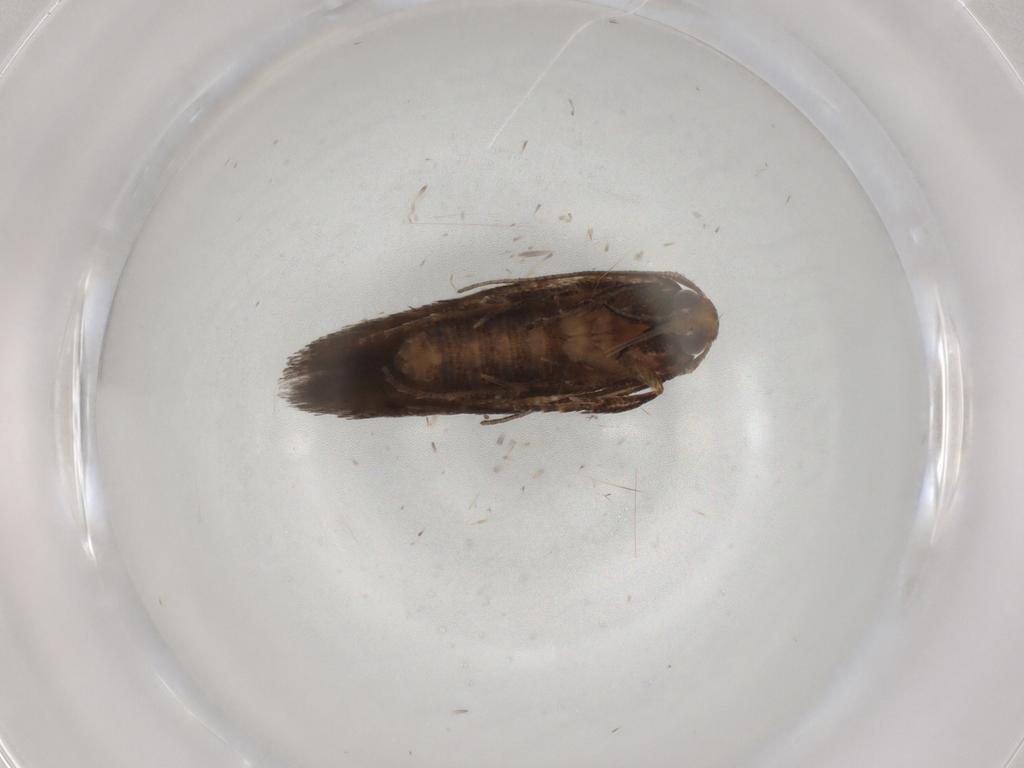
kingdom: Animalia
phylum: Arthropoda
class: Insecta
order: Lepidoptera
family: Cosmopterigidae
